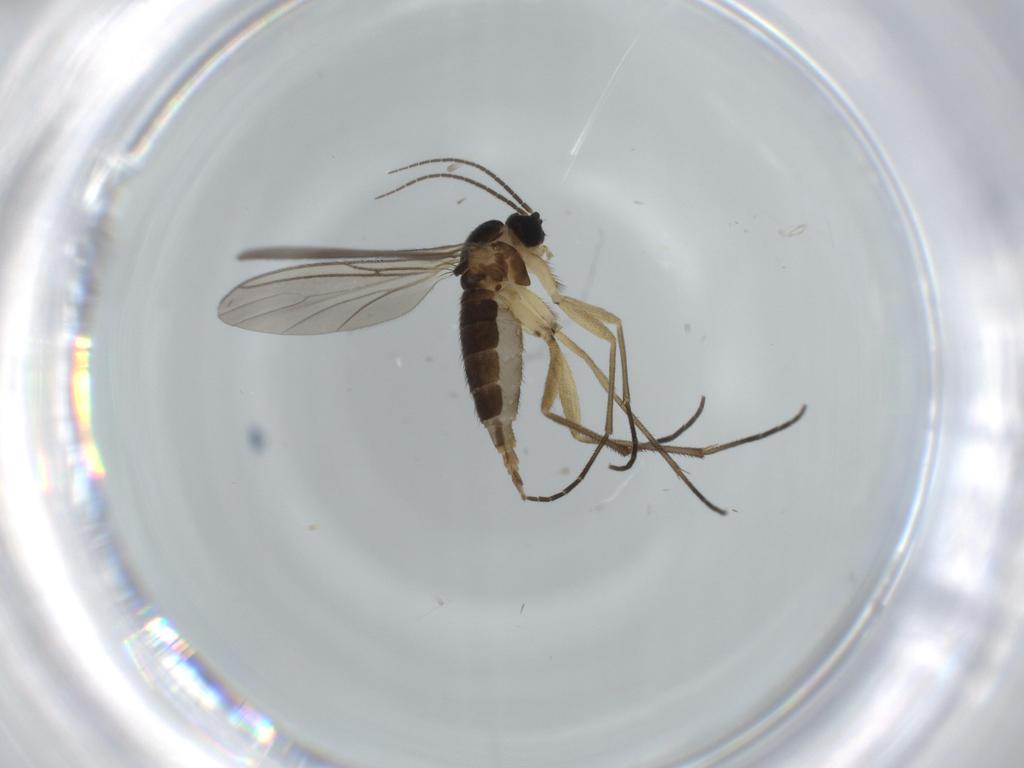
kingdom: Animalia
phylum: Arthropoda
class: Insecta
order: Diptera
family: Sciaridae
